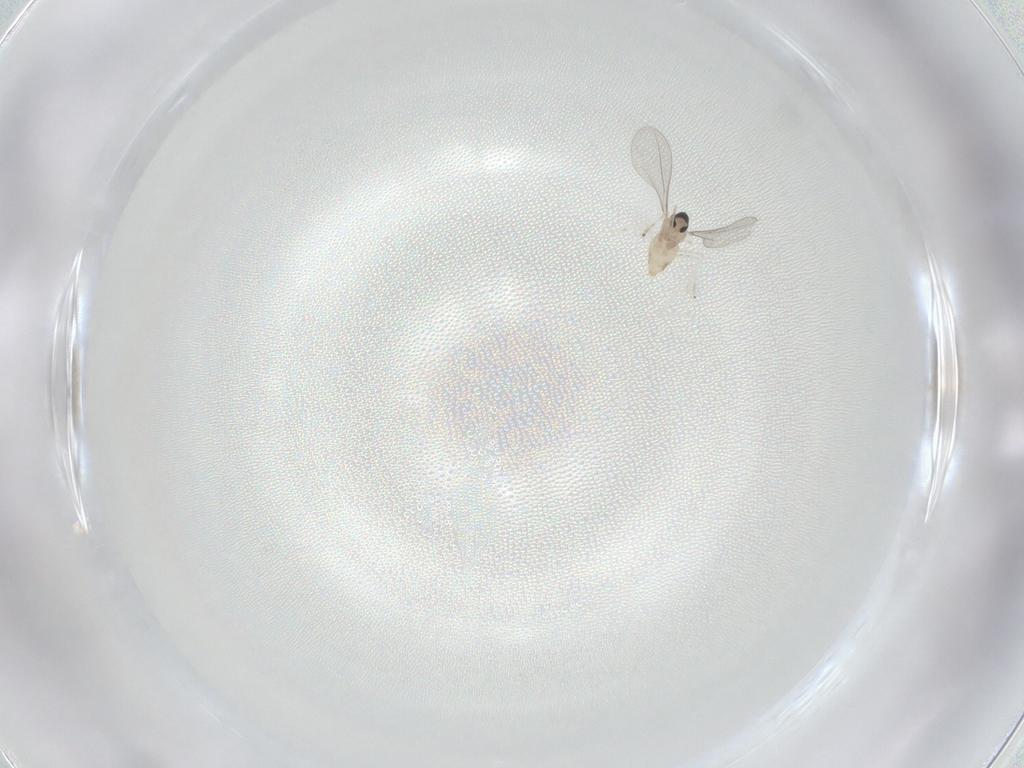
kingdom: Animalia
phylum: Arthropoda
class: Insecta
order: Diptera
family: Cecidomyiidae
